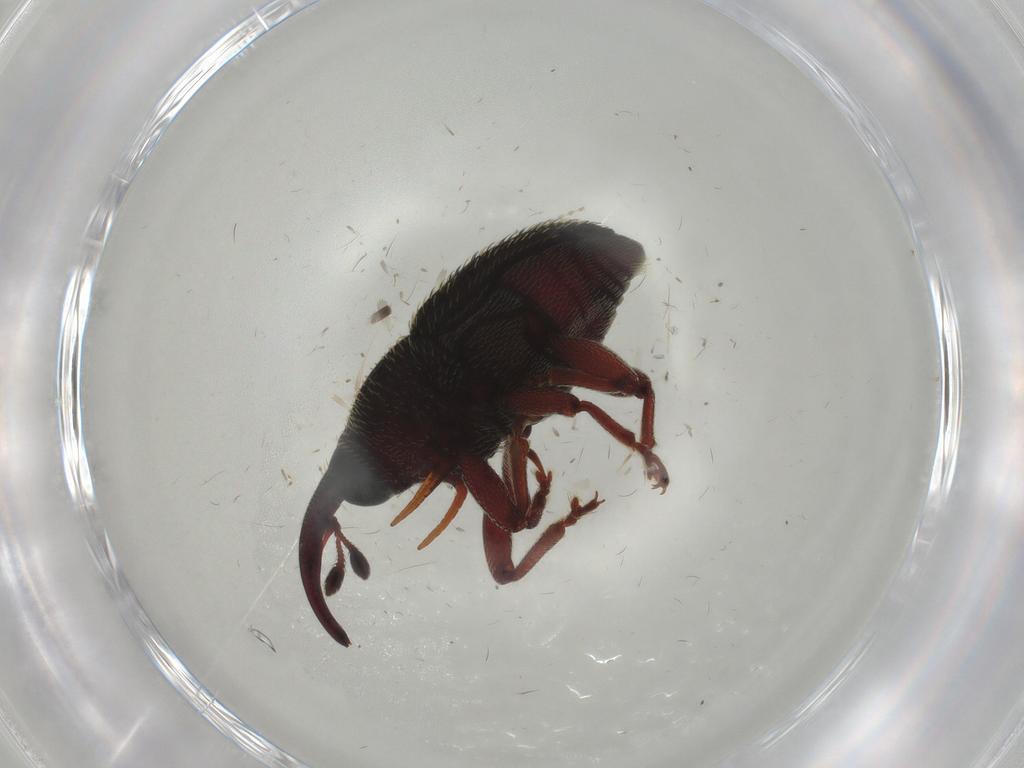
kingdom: Animalia
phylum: Arthropoda
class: Insecta
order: Coleoptera
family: Curculionidae
